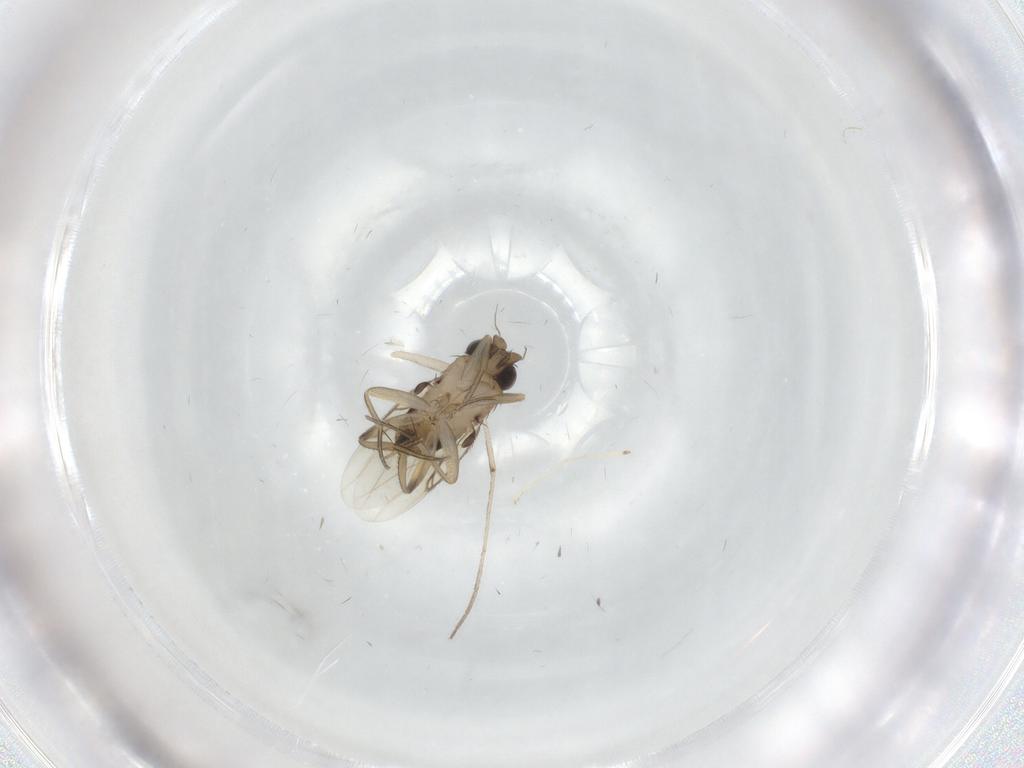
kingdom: Animalia
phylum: Arthropoda
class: Insecta
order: Diptera
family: Chironomidae
